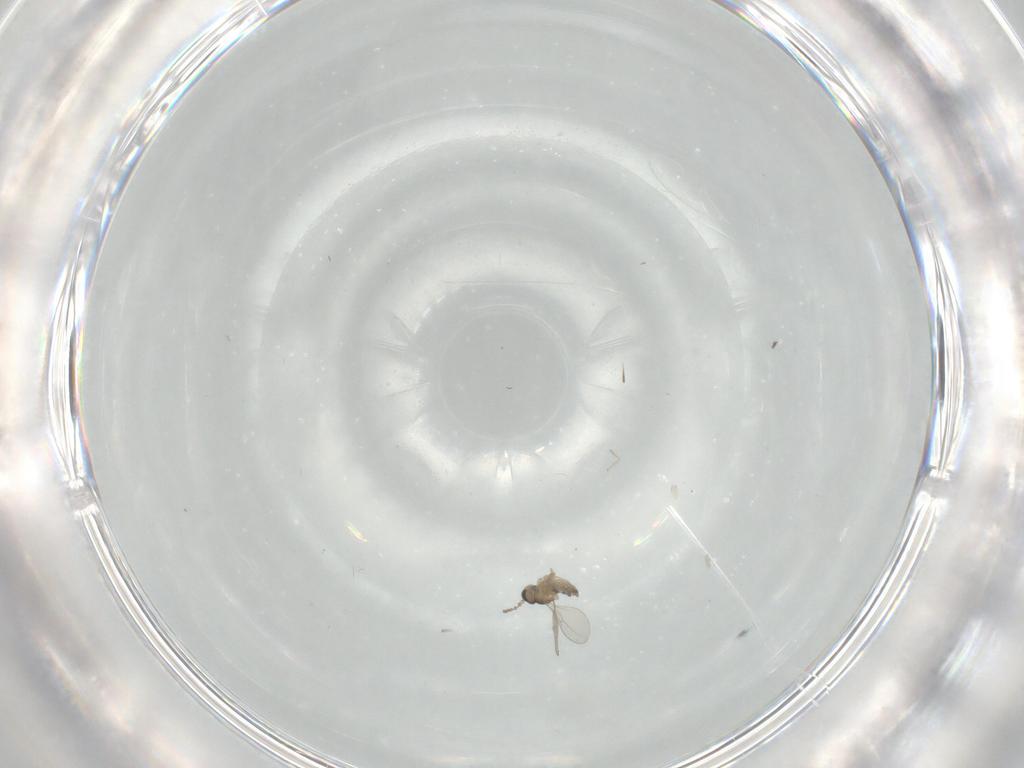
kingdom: Animalia
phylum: Arthropoda
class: Insecta
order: Diptera
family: Cecidomyiidae
